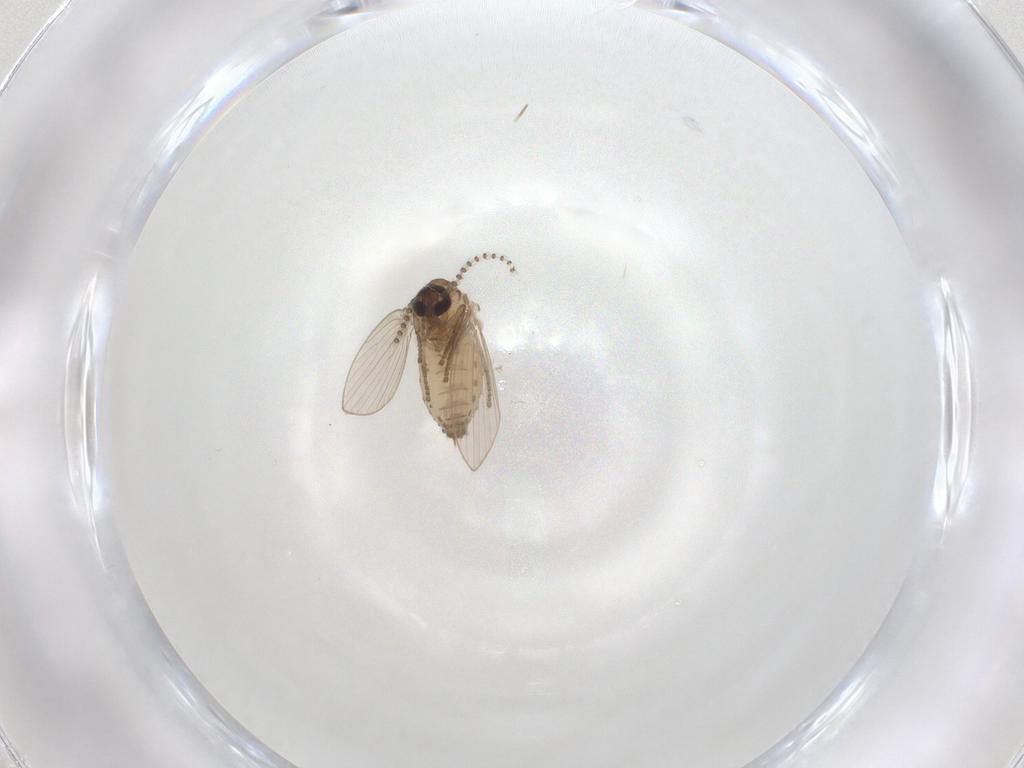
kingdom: Animalia
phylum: Arthropoda
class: Insecta
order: Diptera
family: Psychodidae
